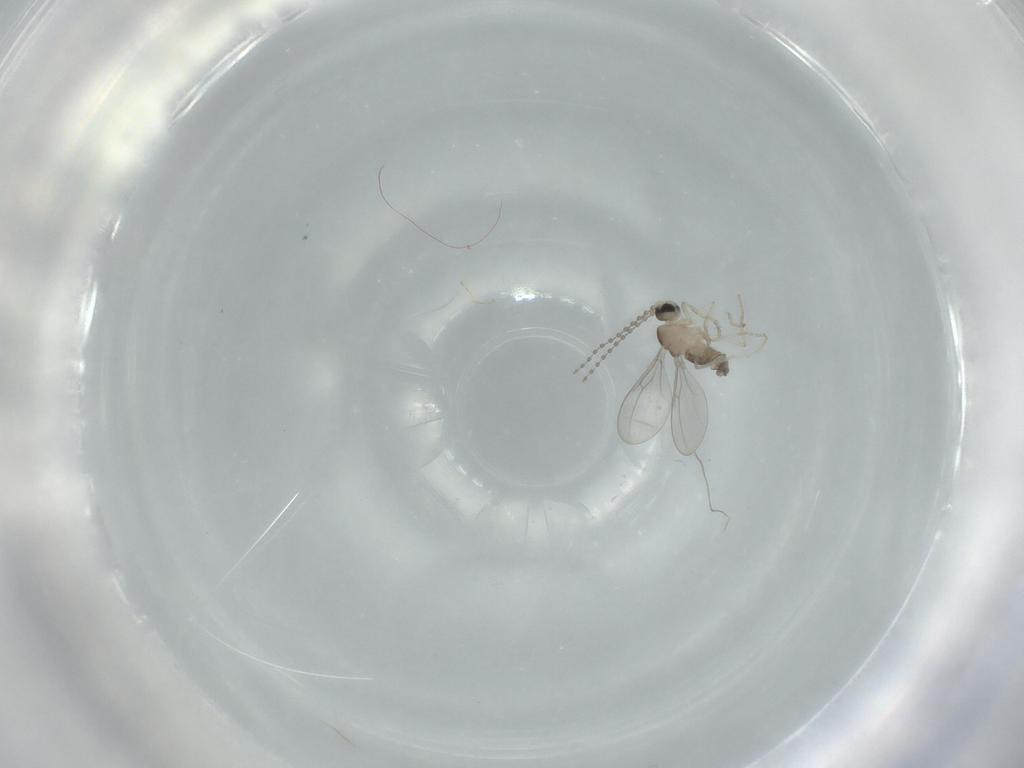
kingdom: Animalia
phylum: Arthropoda
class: Insecta
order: Diptera
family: Cecidomyiidae
